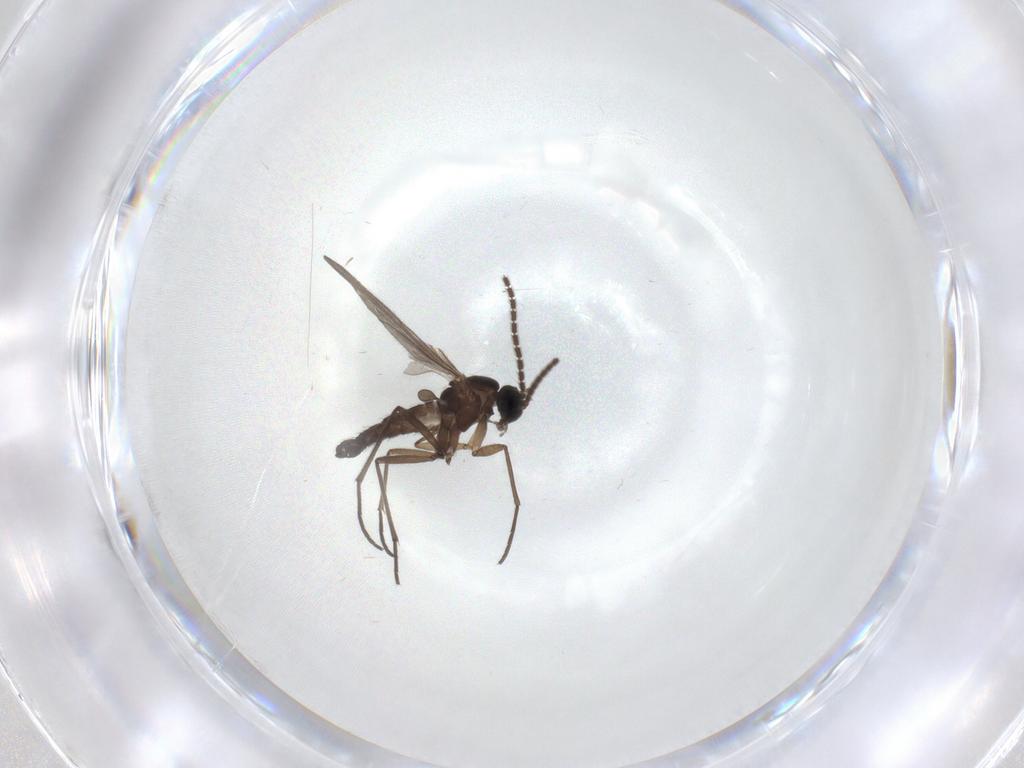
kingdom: Animalia
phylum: Arthropoda
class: Insecta
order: Diptera
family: Sciaridae
